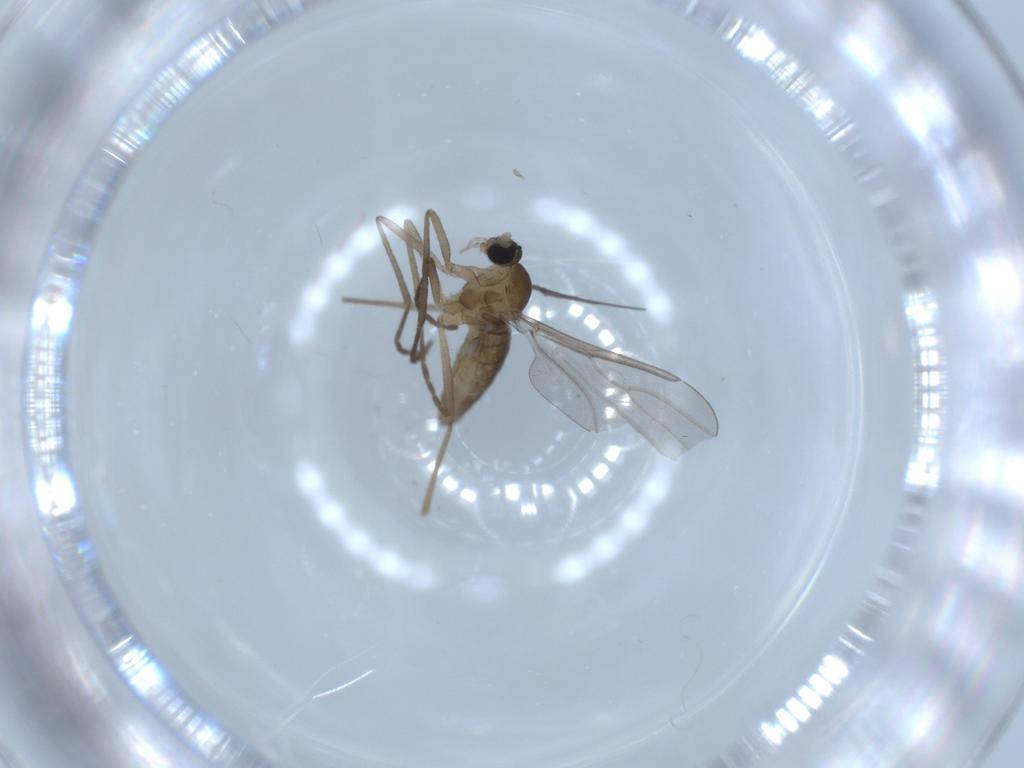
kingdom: Animalia
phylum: Arthropoda
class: Insecta
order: Diptera
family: Cecidomyiidae
